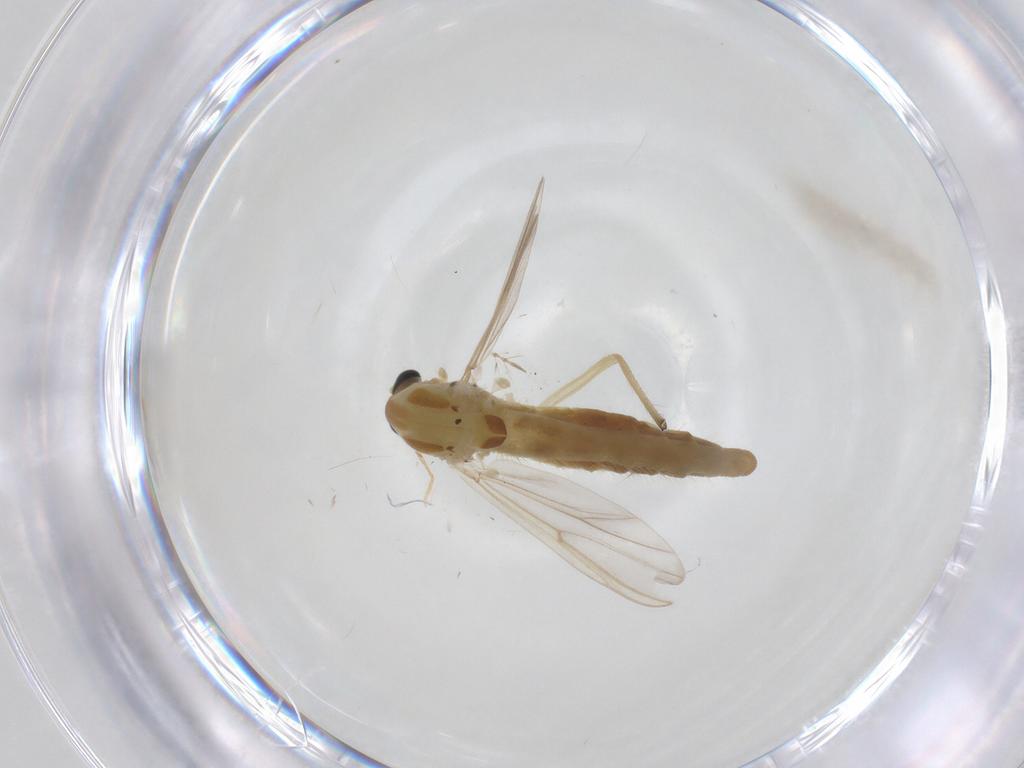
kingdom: Animalia
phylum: Arthropoda
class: Insecta
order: Diptera
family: Chironomidae
